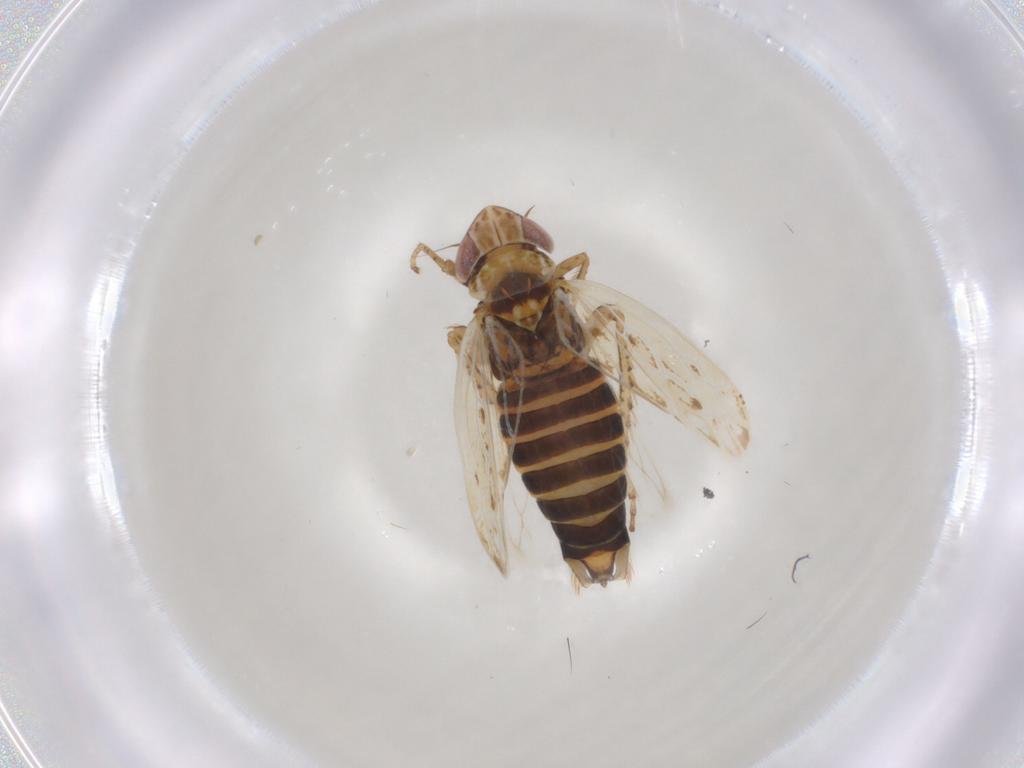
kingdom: Animalia
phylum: Arthropoda
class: Insecta
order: Hemiptera
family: Cicadellidae
